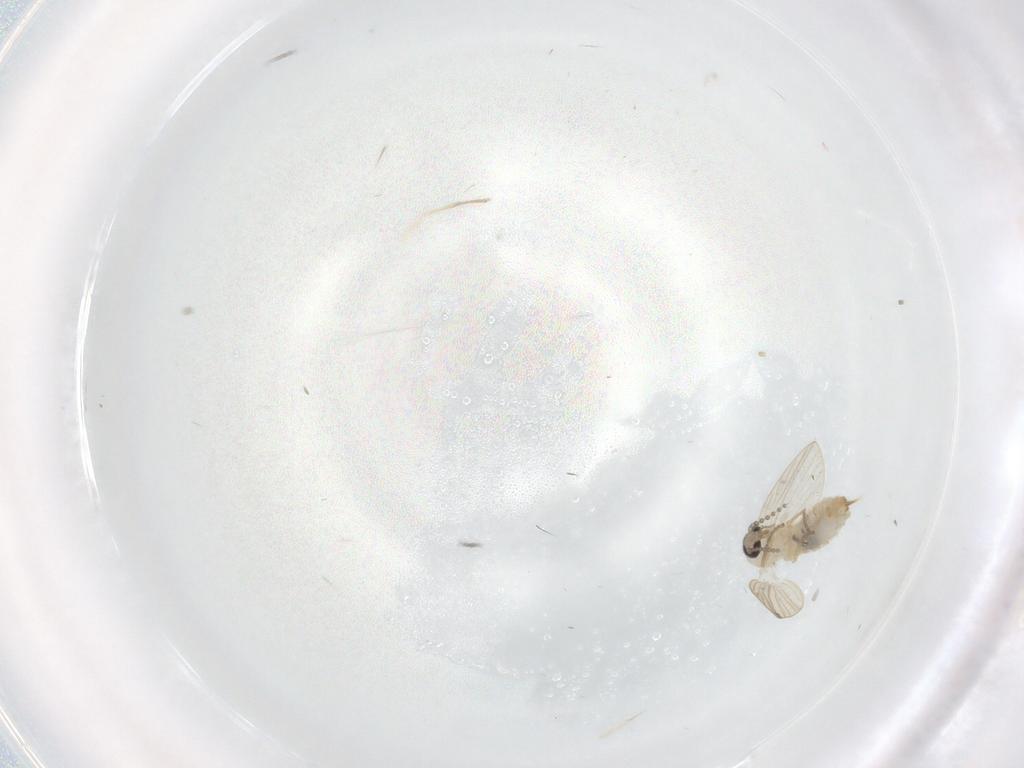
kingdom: Animalia
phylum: Arthropoda
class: Insecta
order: Diptera
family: Psychodidae
